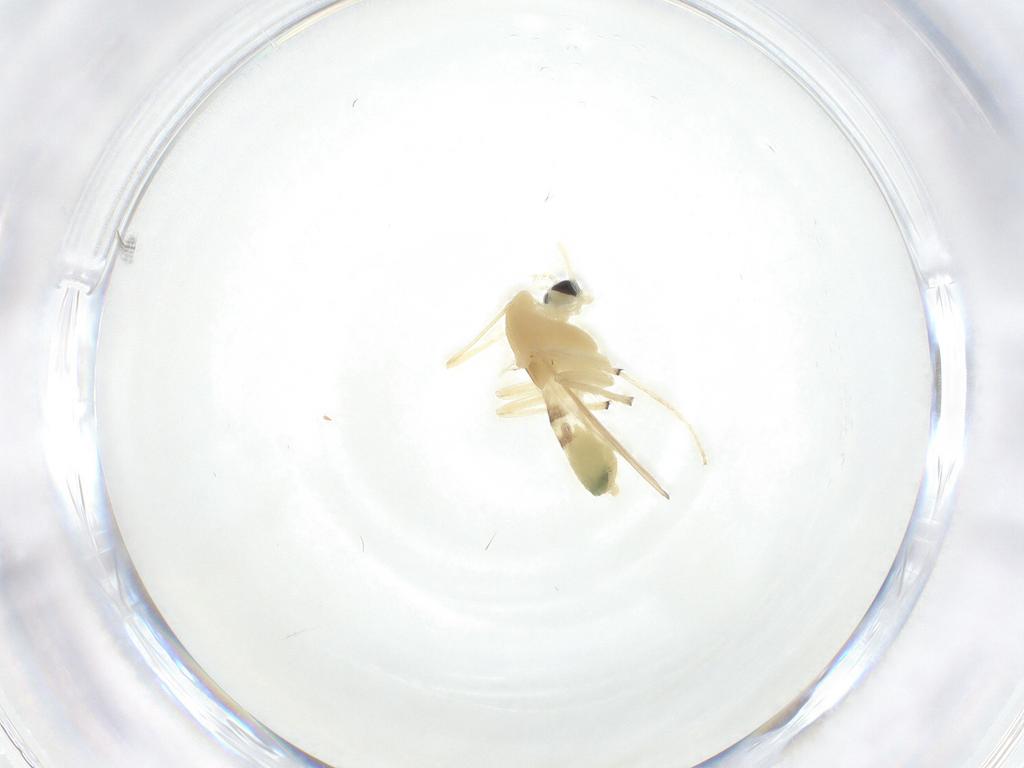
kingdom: Animalia
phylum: Arthropoda
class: Insecta
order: Diptera
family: Chironomidae
